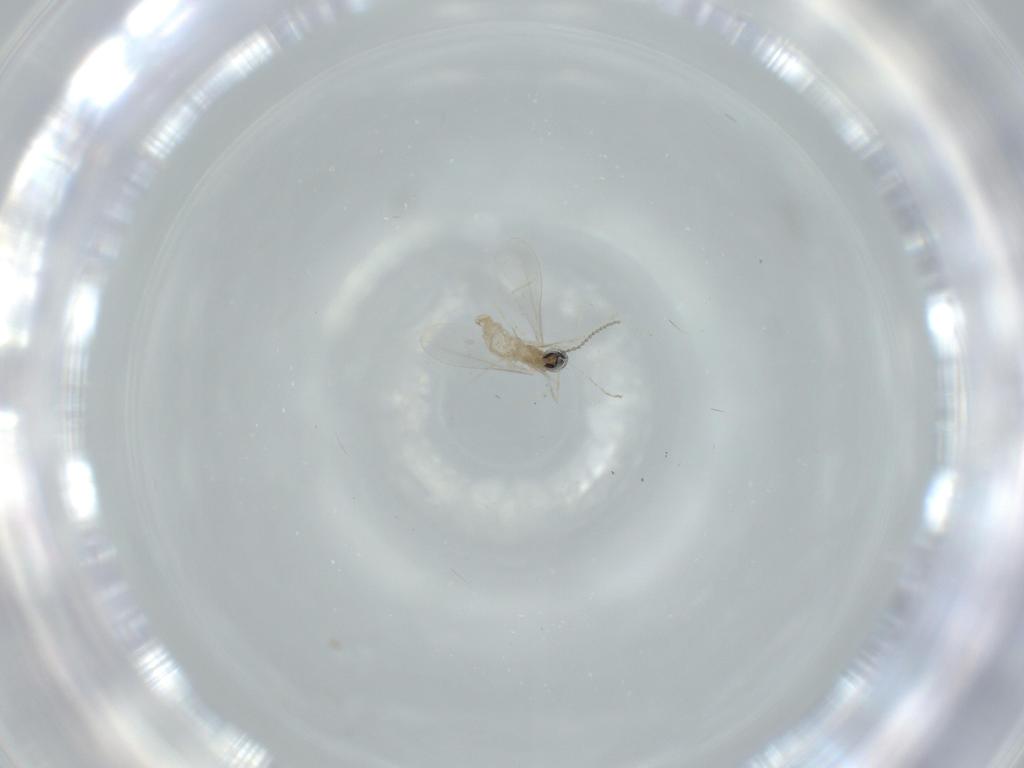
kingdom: Animalia
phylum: Arthropoda
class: Insecta
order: Diptera
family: Cecidomyiidae
